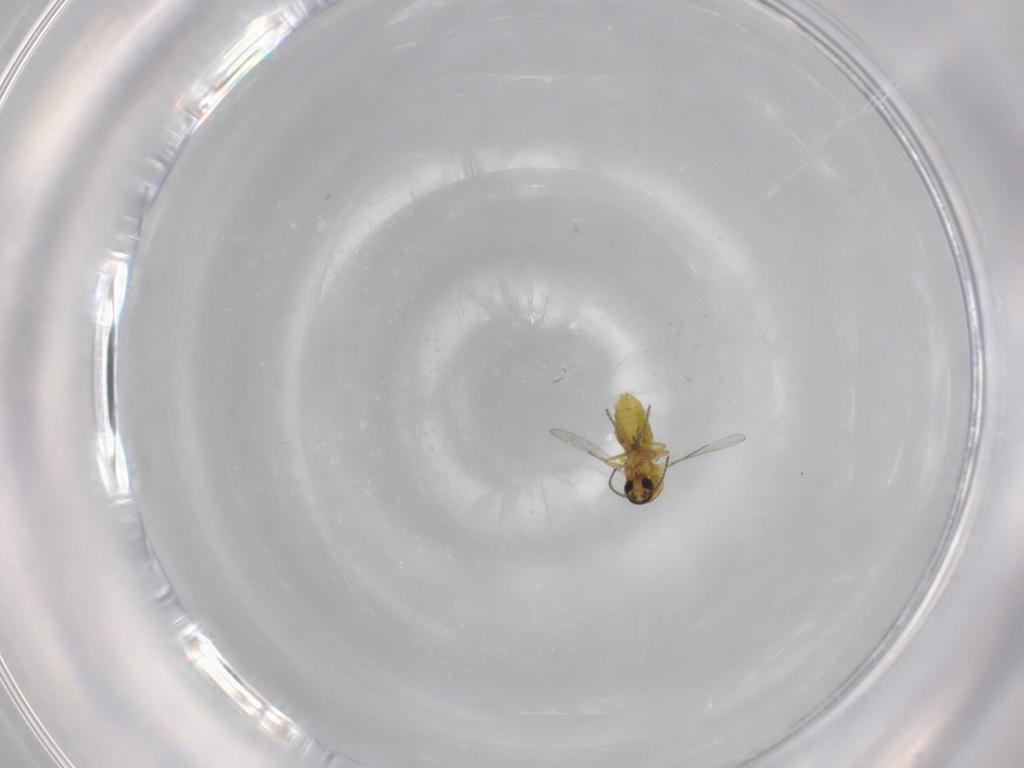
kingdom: Animalia
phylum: Arthropoda
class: Insecta
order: Diptera
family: Ceratopogonidae
